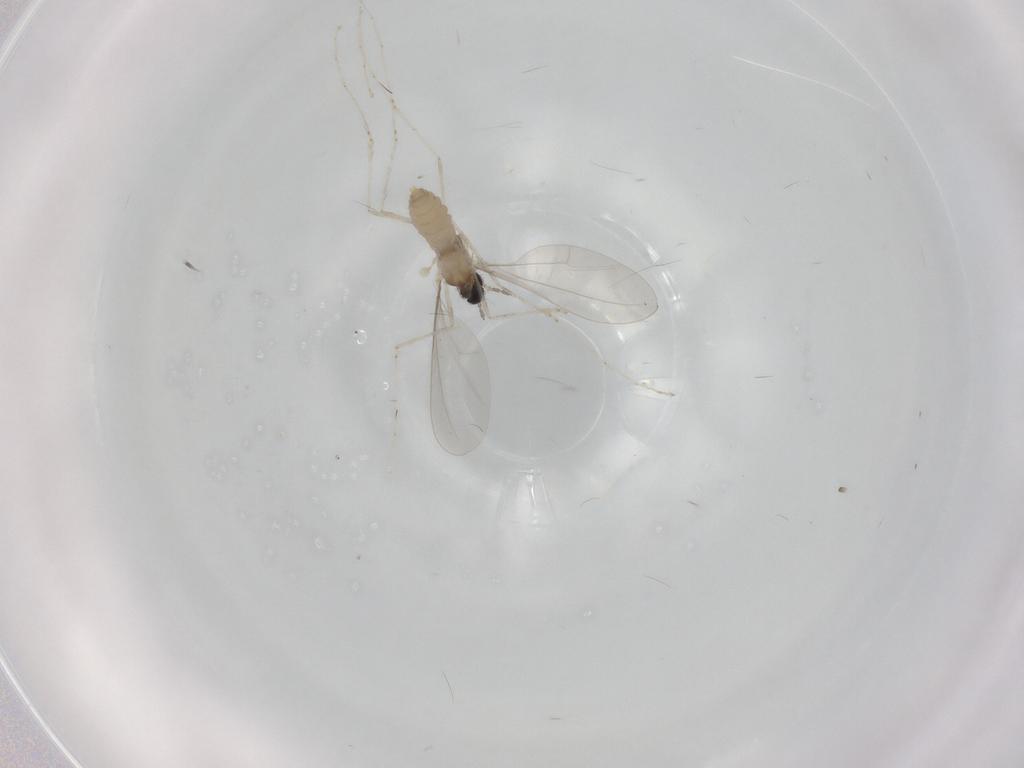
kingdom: Animalia
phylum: Arthropoda
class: Insecta
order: Diptera
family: Cecidomyiidae
